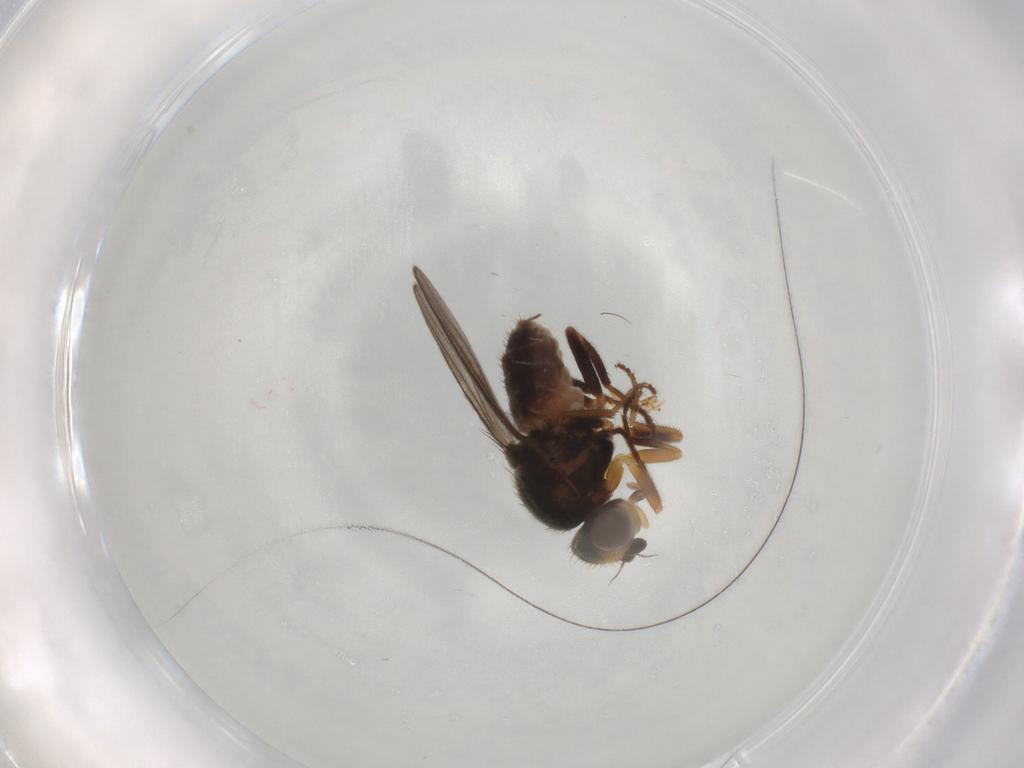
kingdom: Animalia
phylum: Arthropoda
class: Insecta
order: Diptera
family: Chloropidae
